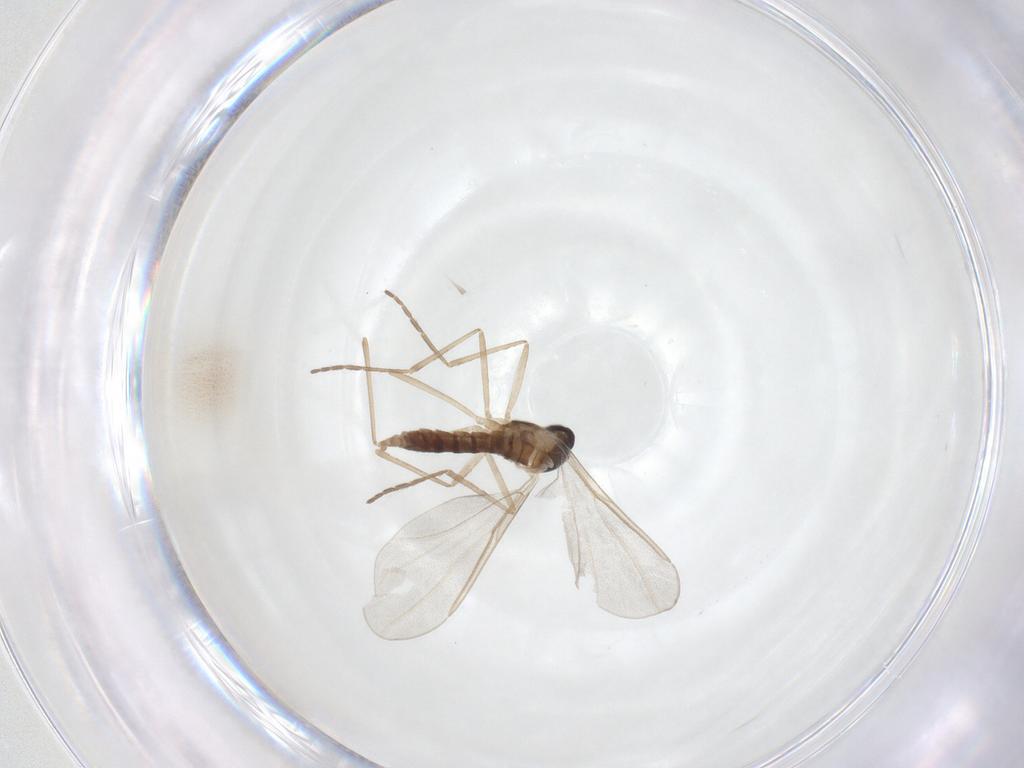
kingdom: Animalia
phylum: Arthropoda
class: Insecta
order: Diptera
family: Cecidomyiidae
